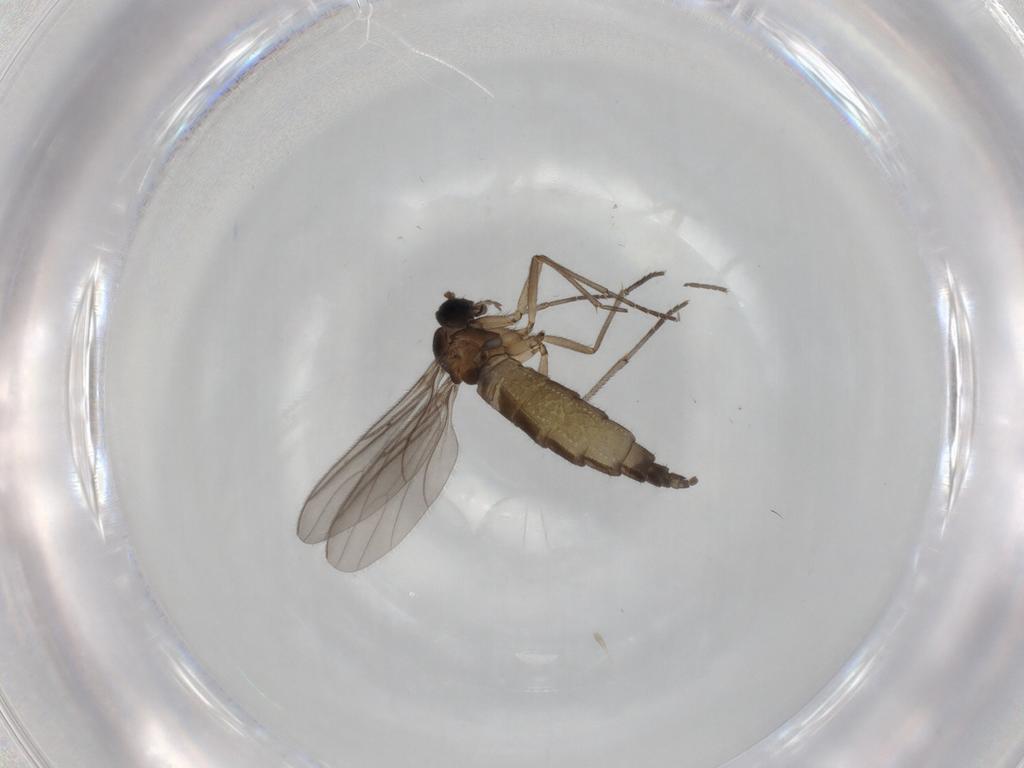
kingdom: Animalia
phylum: Arthropoda
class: Insecta
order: Diptera
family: Sciaridae
